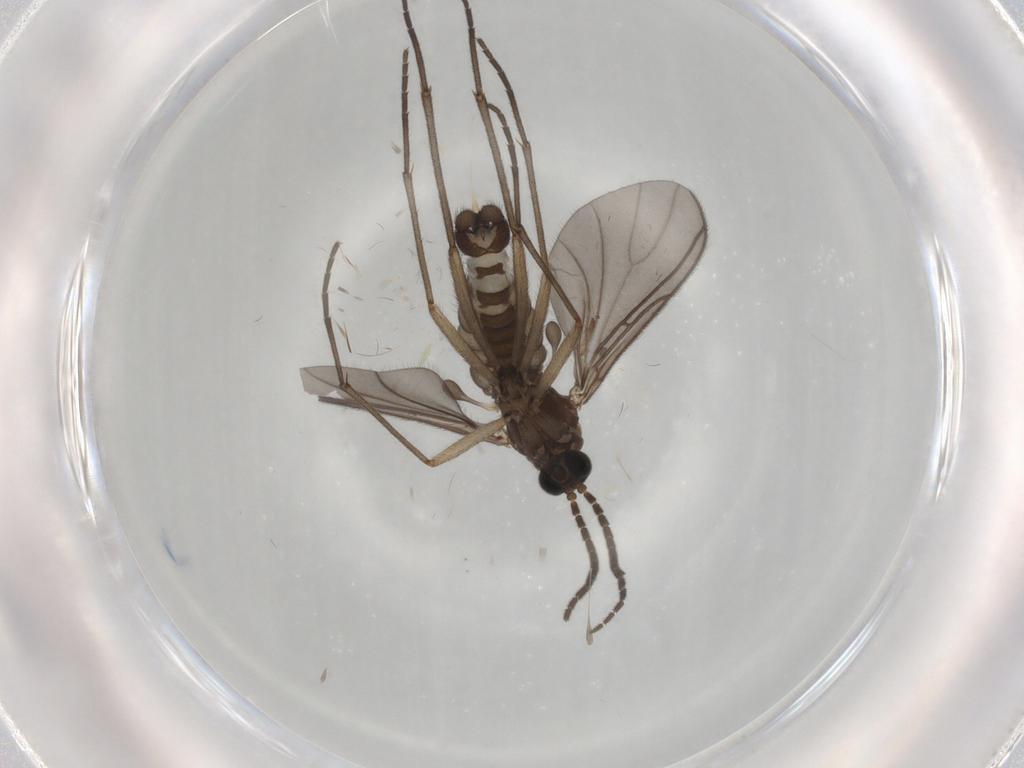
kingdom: Animalia
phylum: Arthropoda
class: Insecta
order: Diptera
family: Sciaridae
